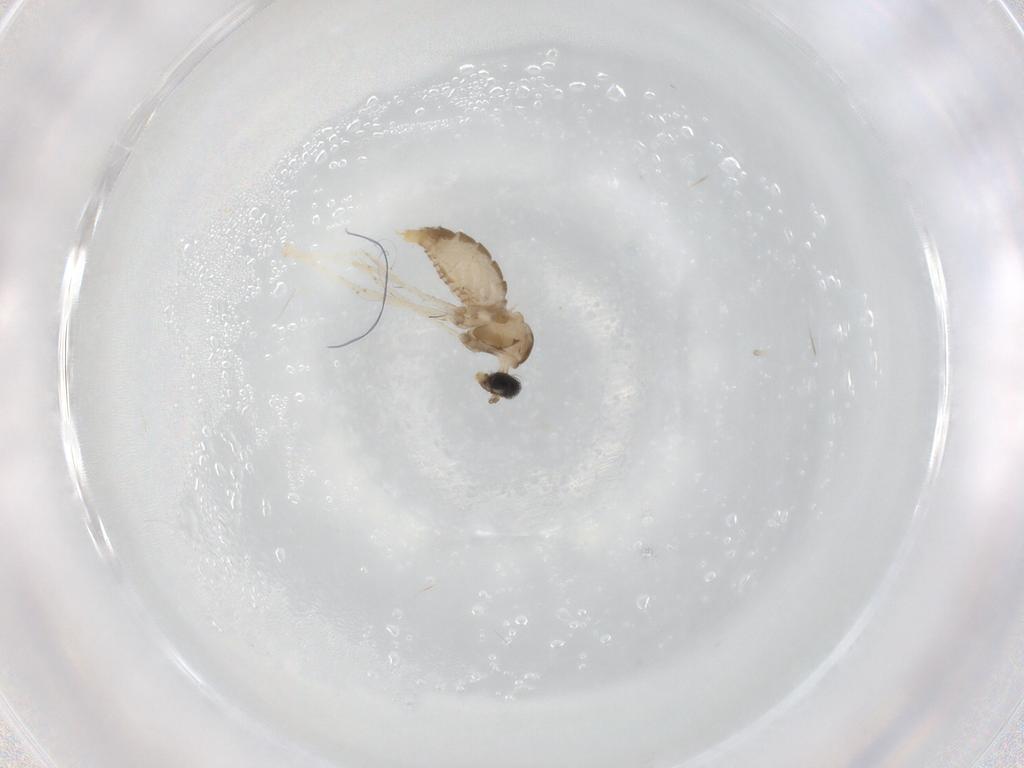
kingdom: Animalia
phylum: Arthropoda
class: Insecta
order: Diptera
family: Cecidomyiidae
